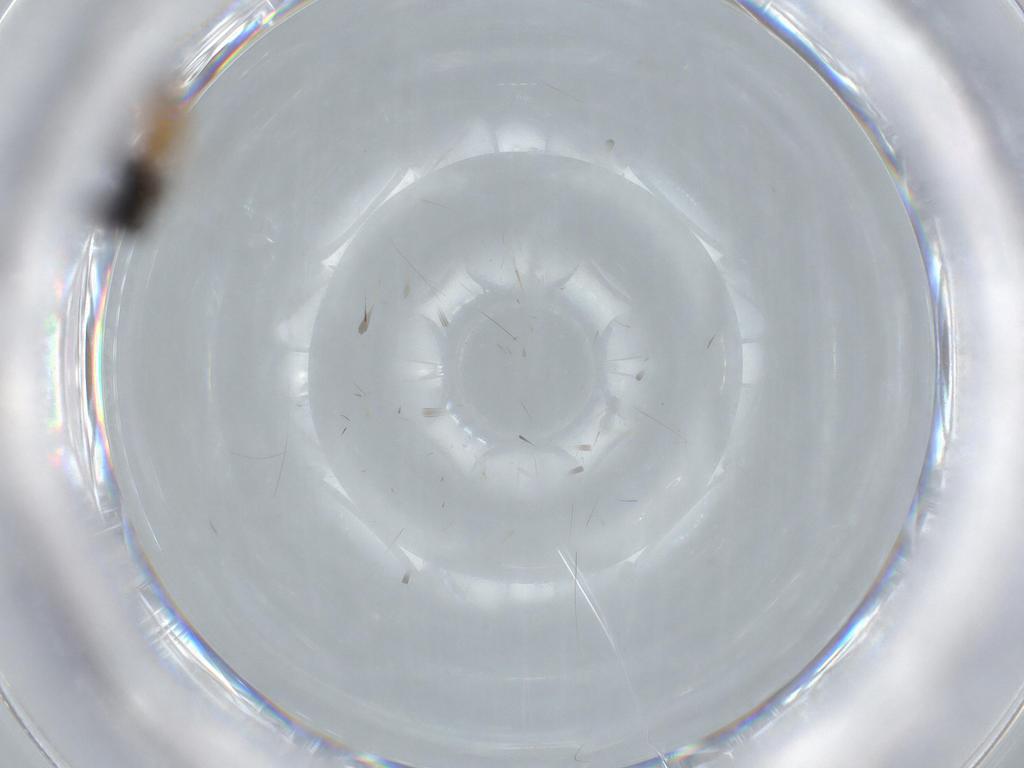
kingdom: Animalia
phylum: Arthropoda
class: Insecta
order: Hymenoptera
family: Scelionidae
